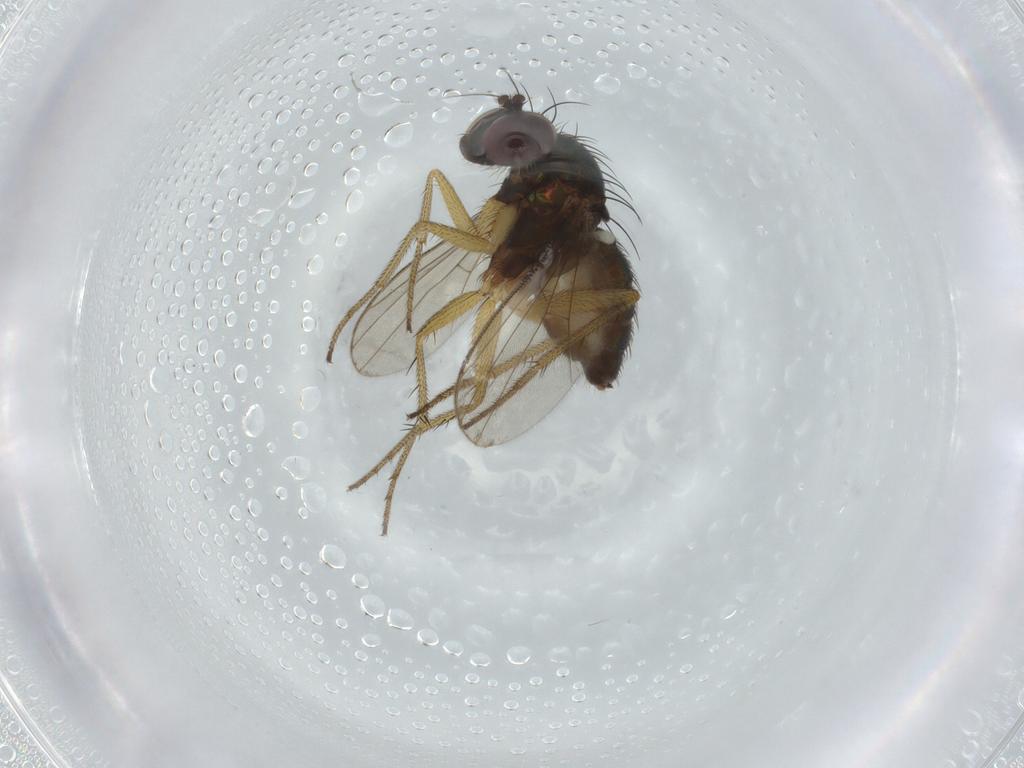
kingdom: Animalia
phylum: Arthropoda
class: Insecta
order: Diptera
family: Dolichopodidae
